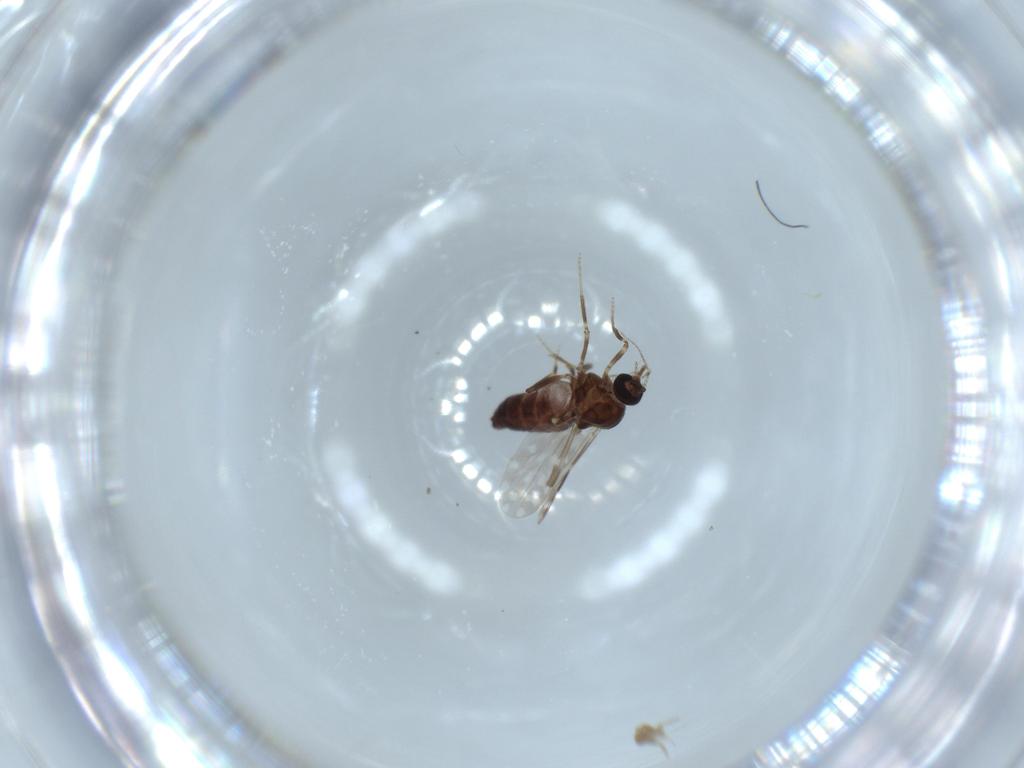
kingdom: Animalia
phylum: Arthropoda
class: Insecta
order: Diptera
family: Ceratopogonidae
